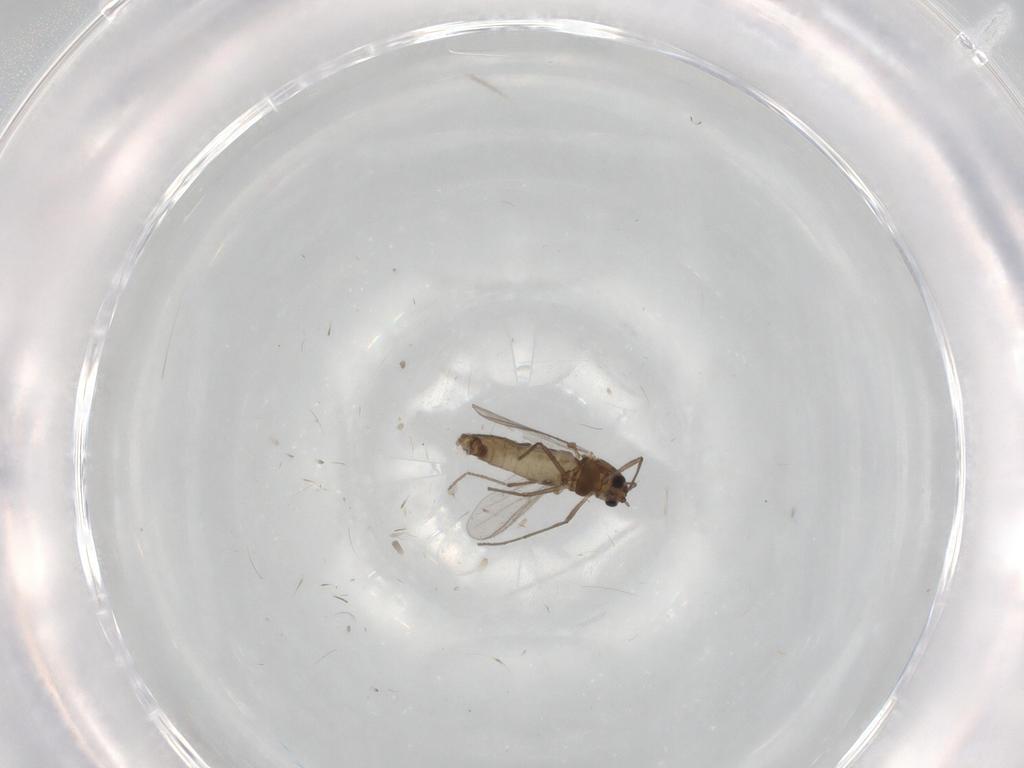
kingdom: Animalia
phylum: Arthropoda
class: Insecta
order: Diptera
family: Chironomidae
